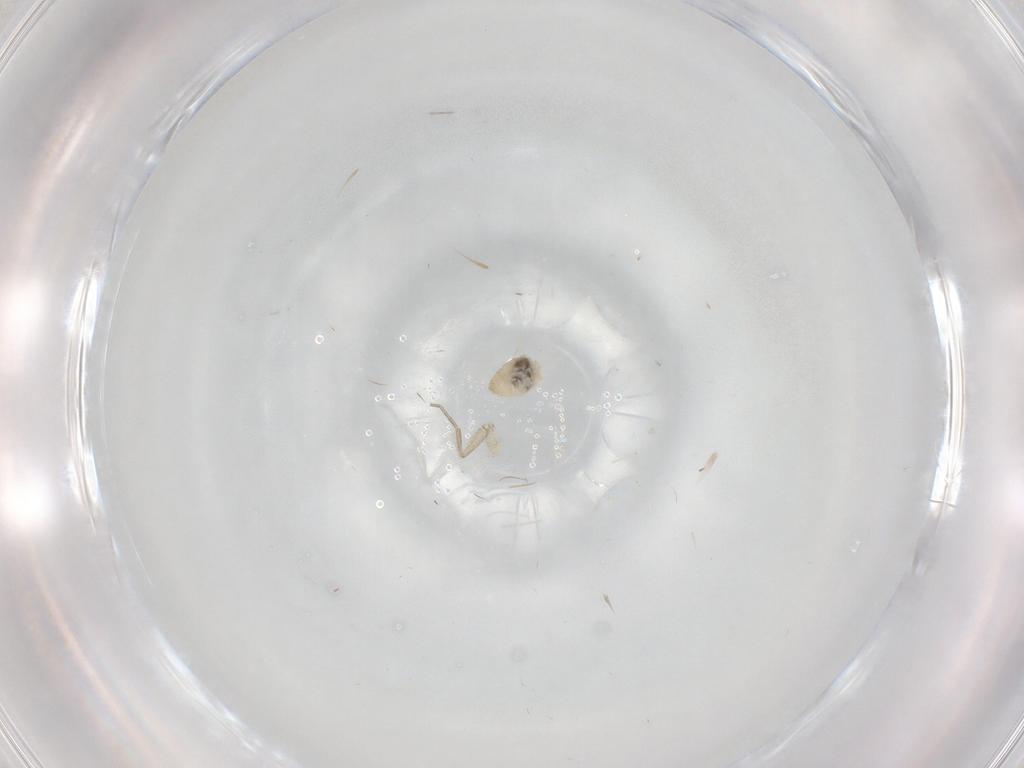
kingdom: Animalia
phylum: Arthropoda
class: Insecta
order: Diptera
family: Cecidomyiidae
